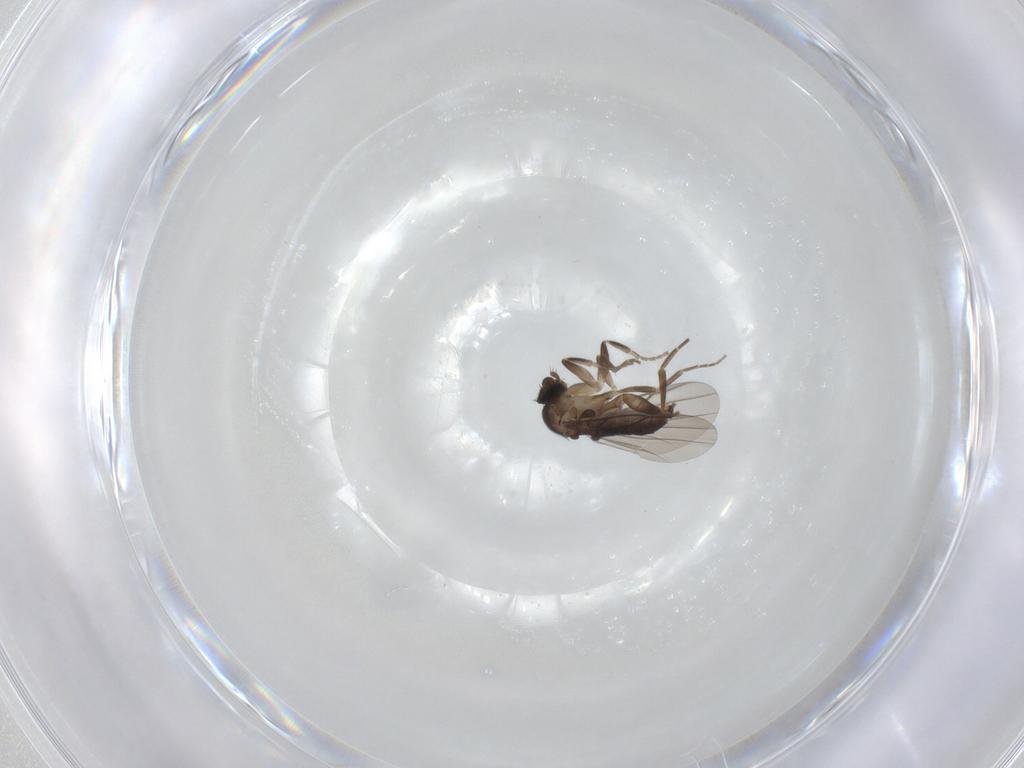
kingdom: Animalia
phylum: Arthropoda
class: Insecta
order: Diptera
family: Phoridae
